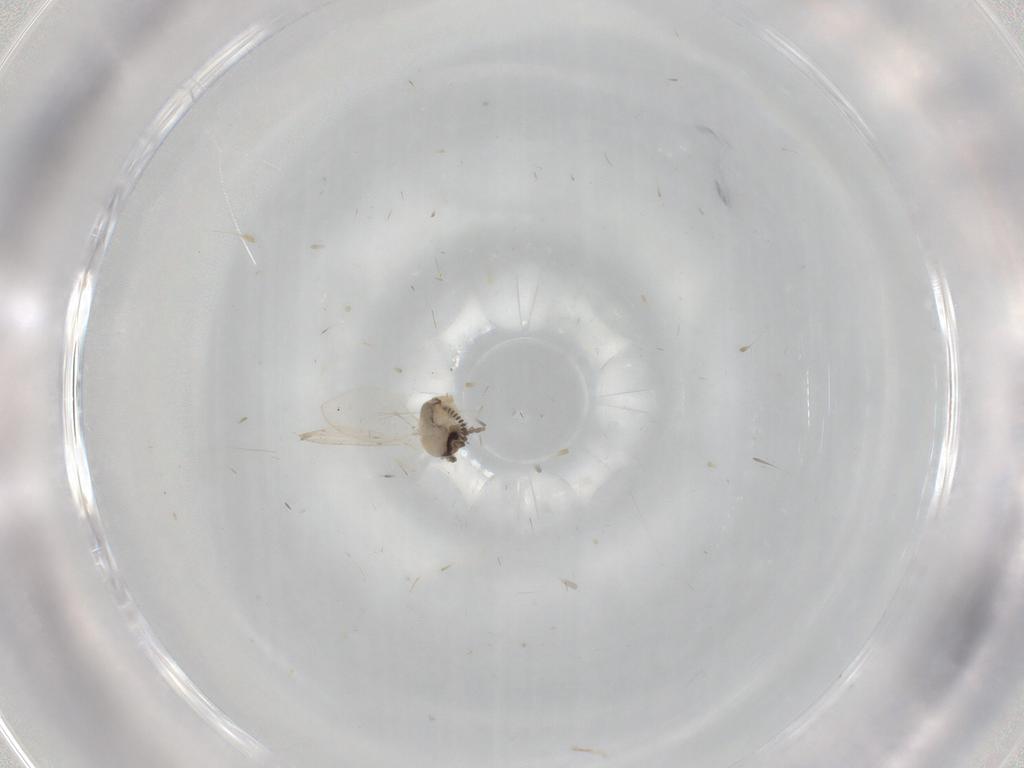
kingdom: Animalia
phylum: Arthropoda
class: Insecta
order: Diptera
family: Psychodidae
